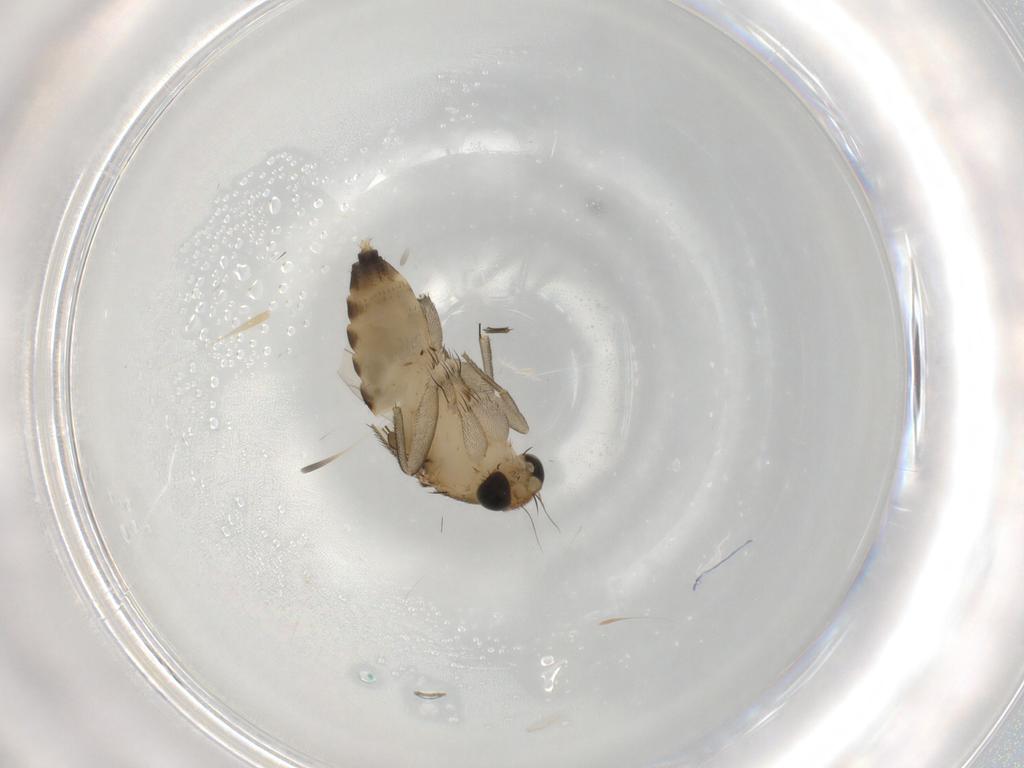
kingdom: Animalia
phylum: Arthropoda
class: Insecta
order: Diptera
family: Phoridae
